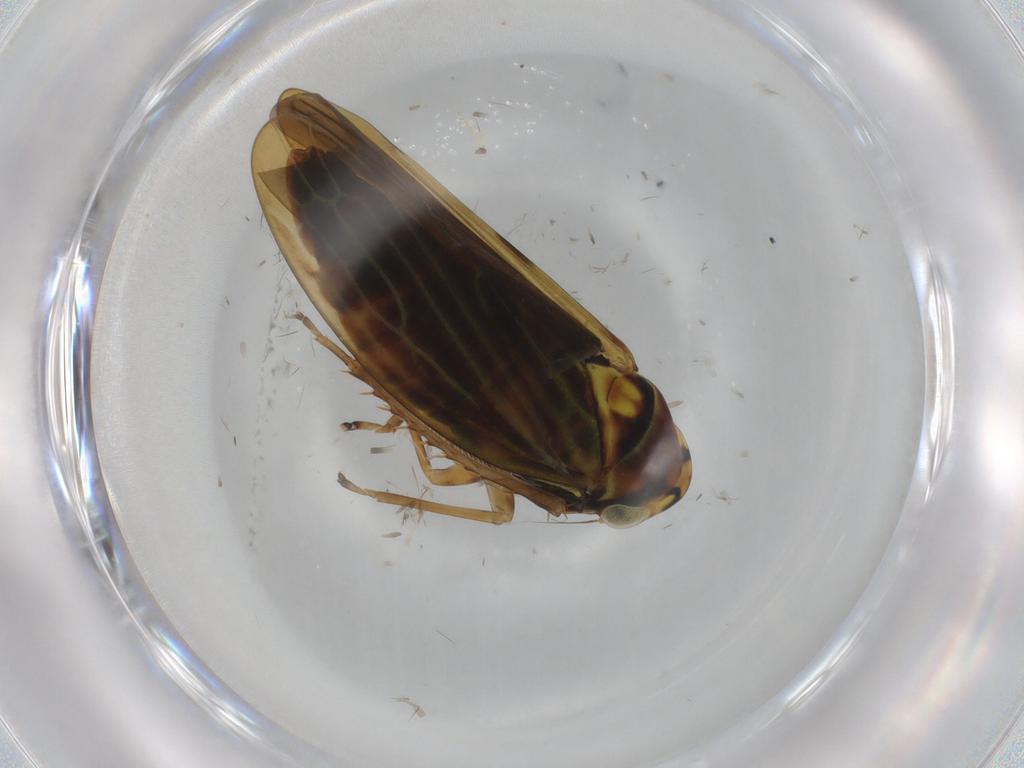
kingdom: Animalia
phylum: Arthropoda
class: Insecta
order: Hemiptera
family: Cicadellidae
